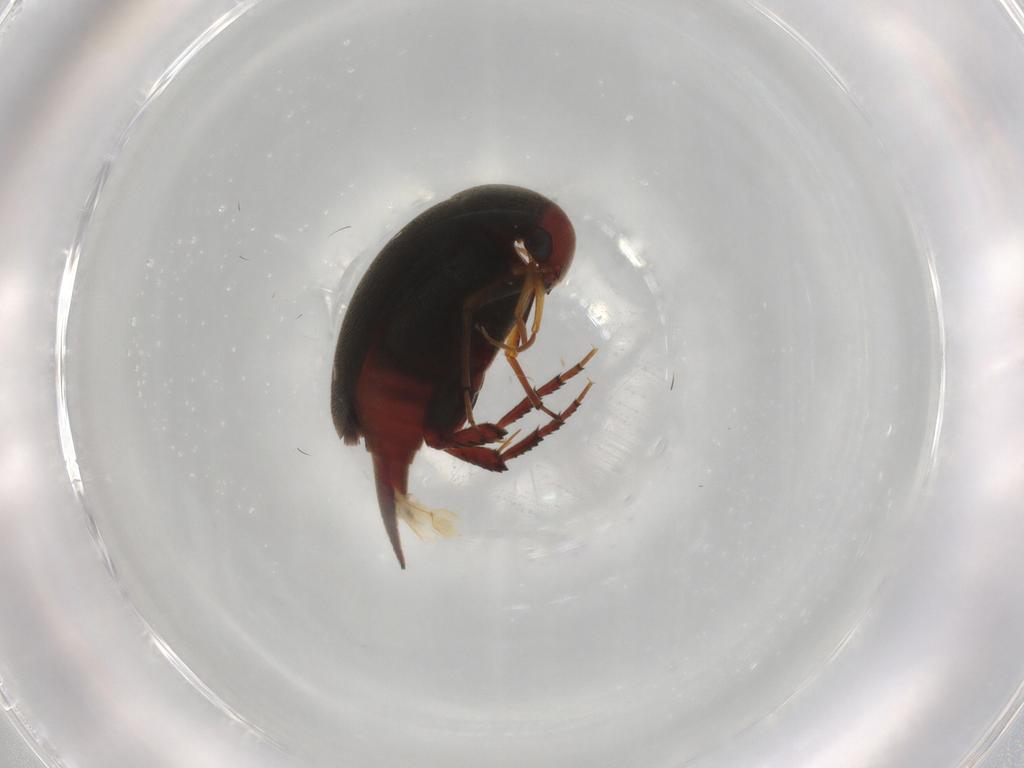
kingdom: Animalia
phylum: Arthropoda
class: Insecta
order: Coleoptera
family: Mordellidae
